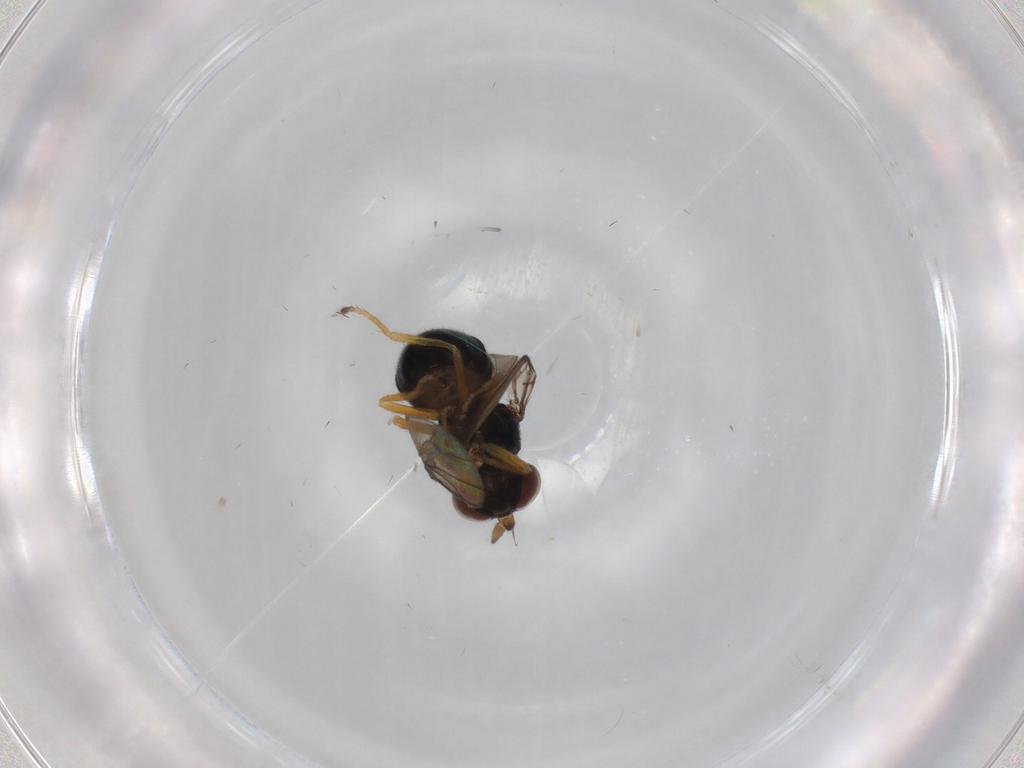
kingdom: Animalia
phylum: Arthropoda
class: Insecta
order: Diptera
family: Ephydridae
